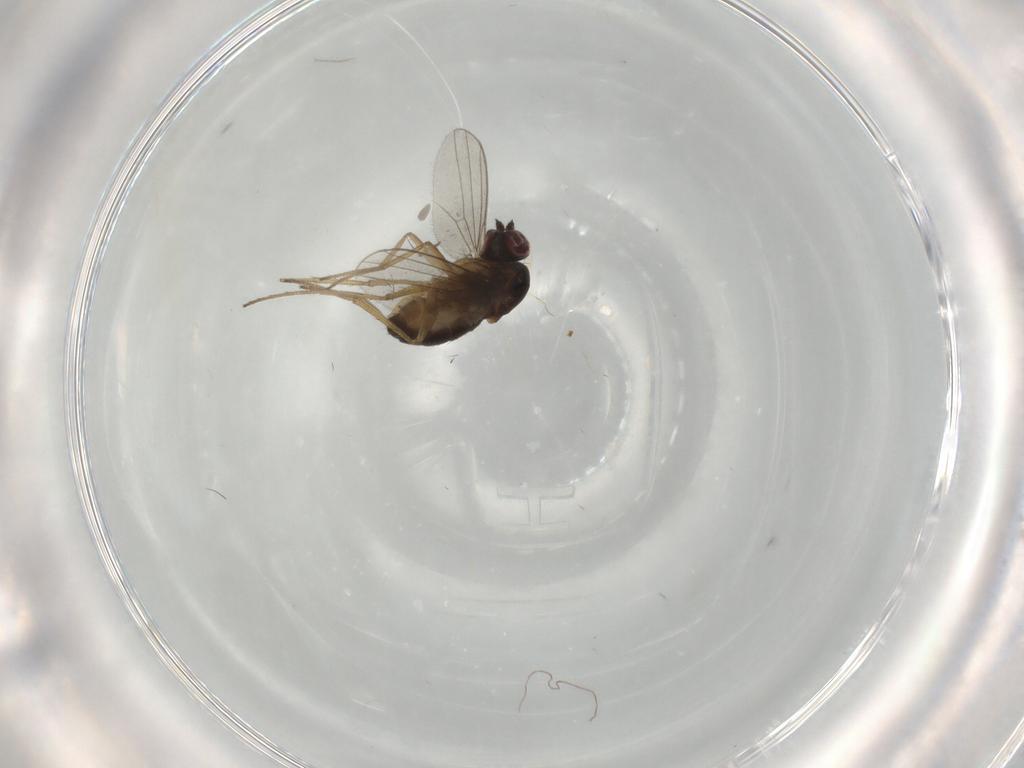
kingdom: Animalia
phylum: Arthropoda
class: Insecta
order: Diptera
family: Dolichopodidae
